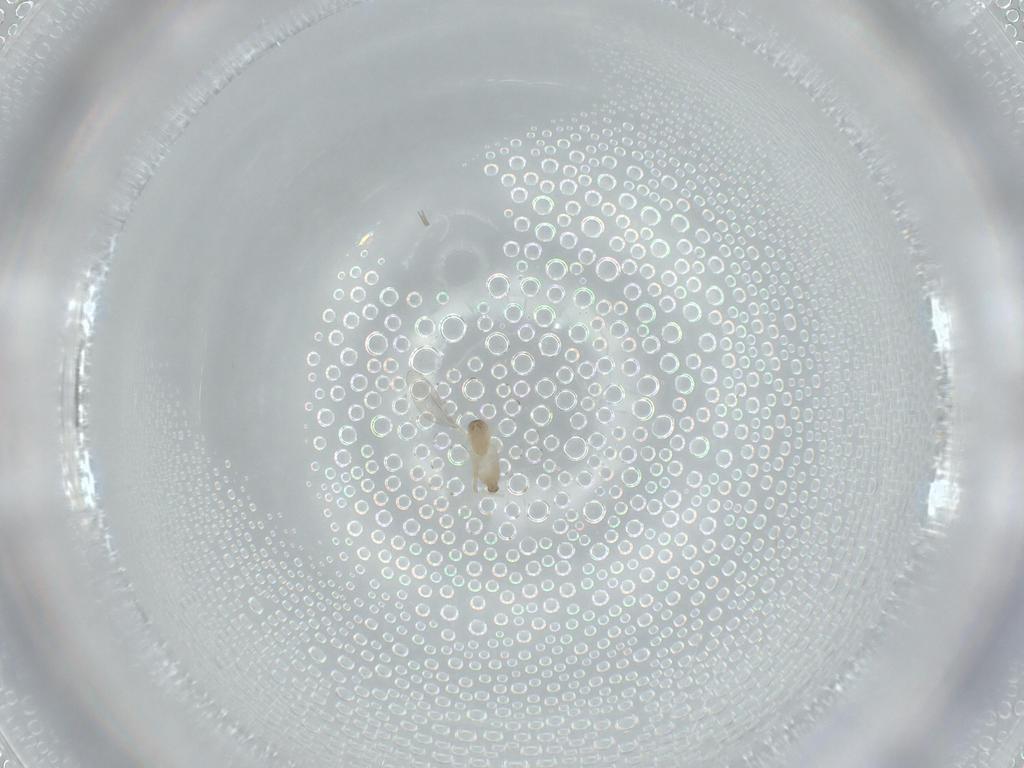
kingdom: Animalia
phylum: Arthropoda
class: Insecta
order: Diptera
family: Cecidomyiidae
